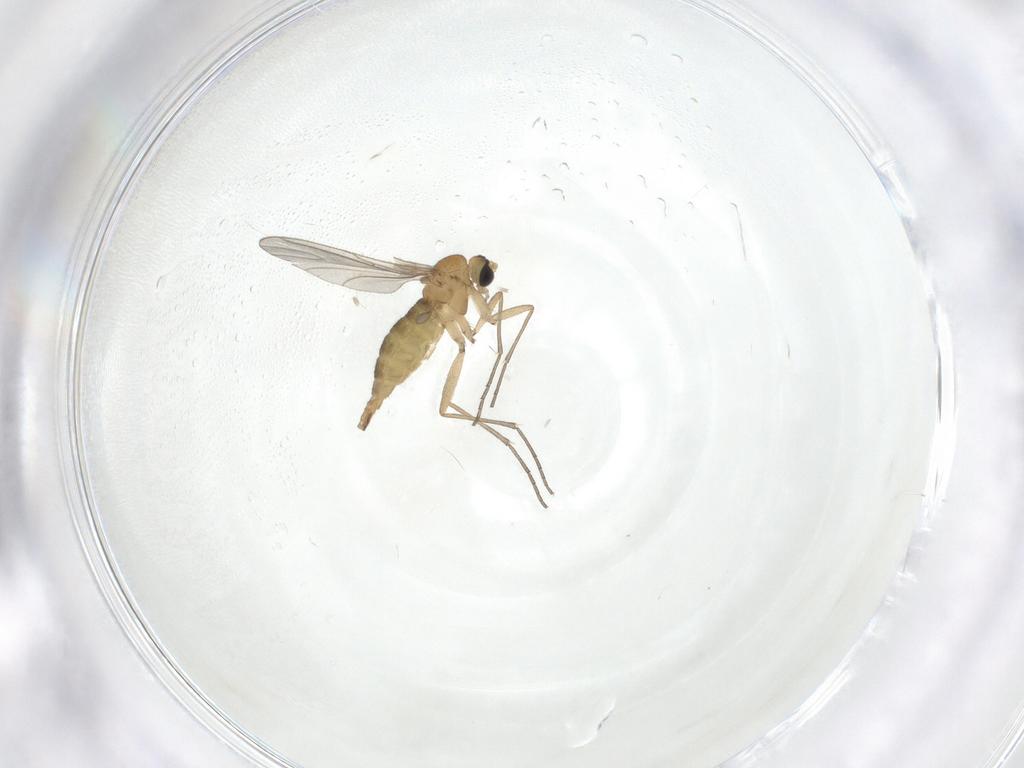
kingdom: Animalia
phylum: Arthropoda
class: Insecta
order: Diptera
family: Sciaridae
